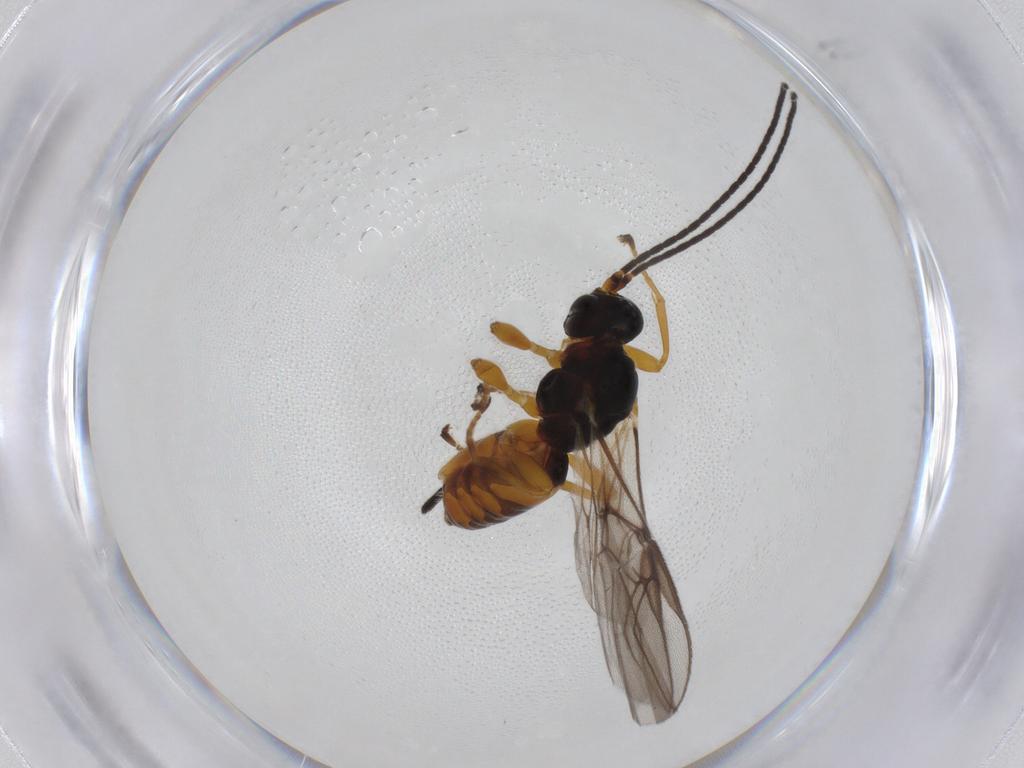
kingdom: Animalia
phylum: Arthropoda
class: Insecta
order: Hymenoptera
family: Braconidae
